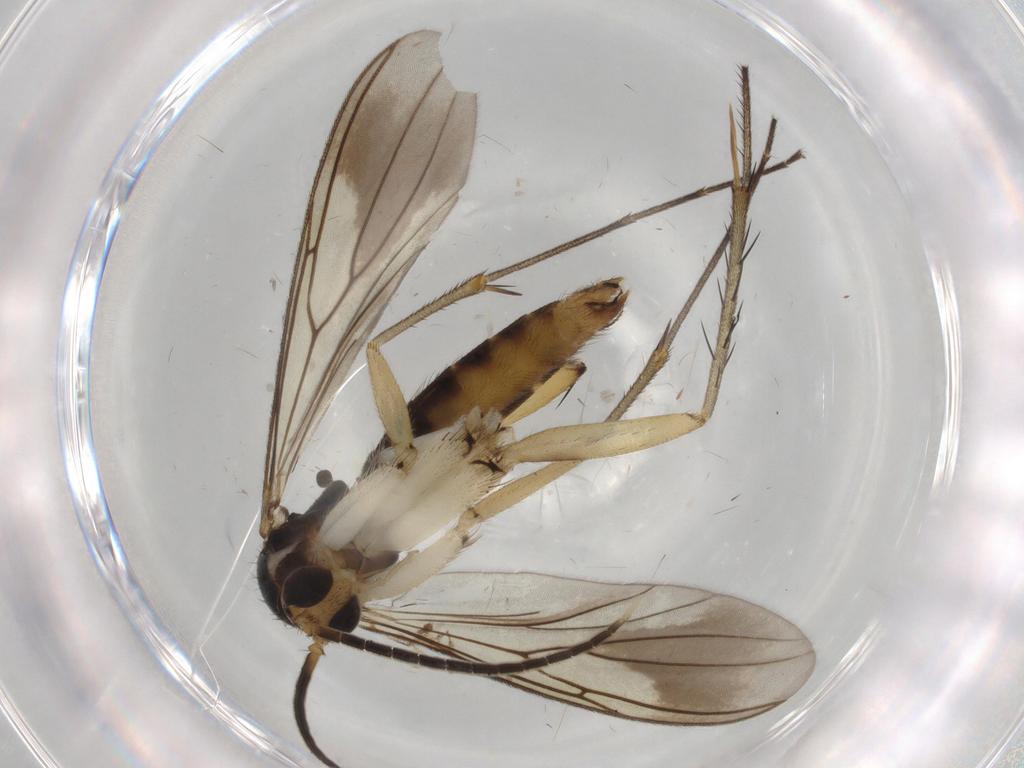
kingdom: Animalia
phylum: Arthropoda
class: Insecta
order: Diptera
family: Mycetophilidae
